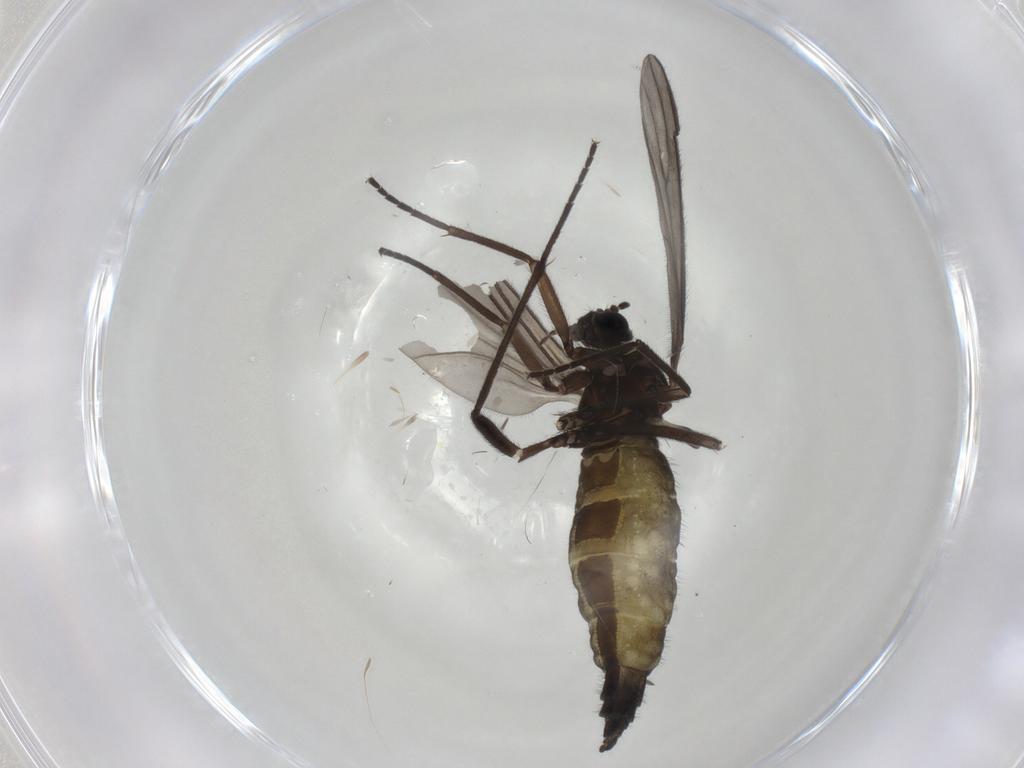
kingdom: Animalia
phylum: Arthropoda
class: Insecta
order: Diptera
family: Sciaridae
